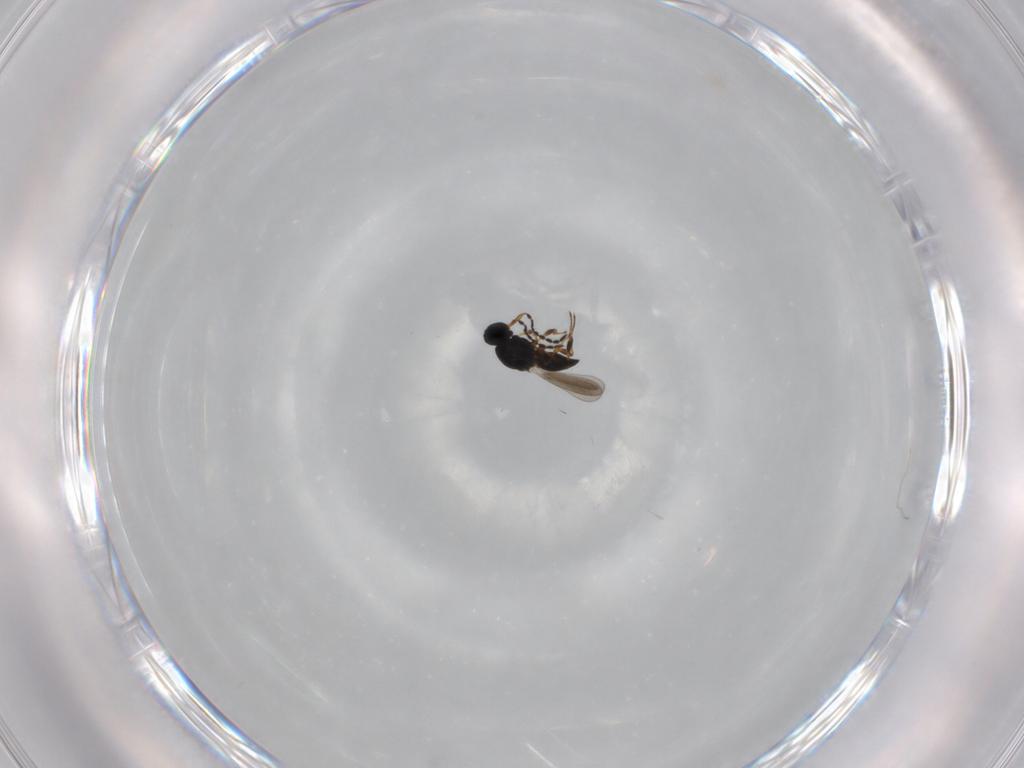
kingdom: Animalia
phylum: Arthropoda
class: Insecta
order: Hymenoptera
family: Platygastridae
